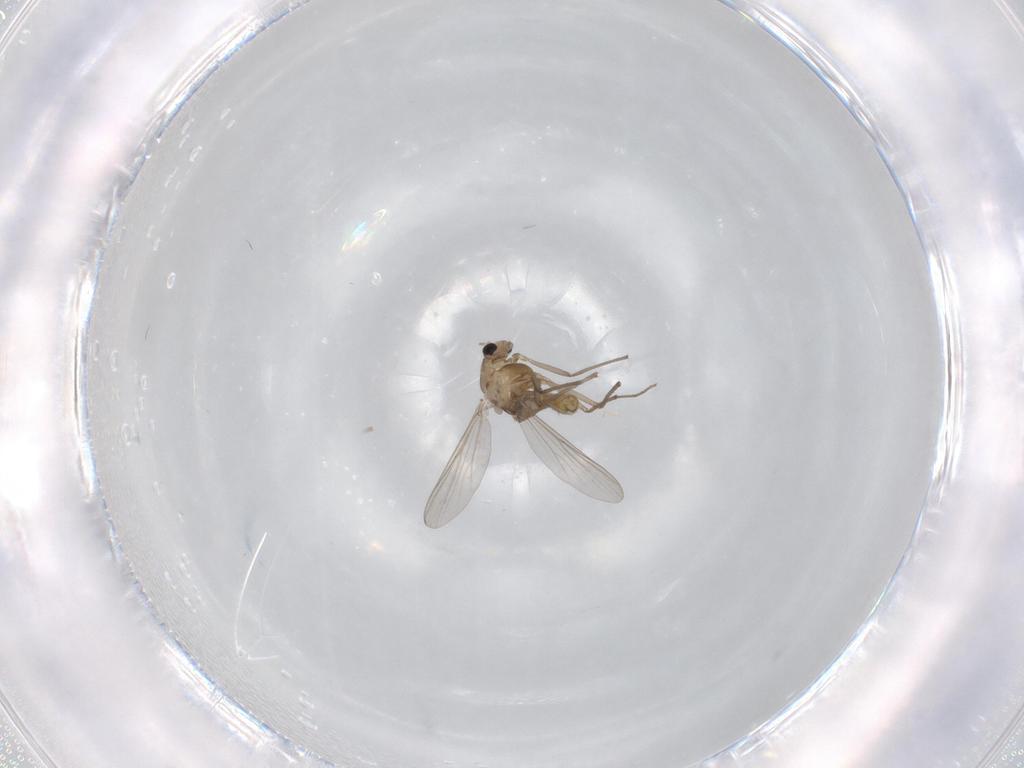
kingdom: Animalia
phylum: Arthropoda
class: Insecta
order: Diptera
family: Chironomidae
